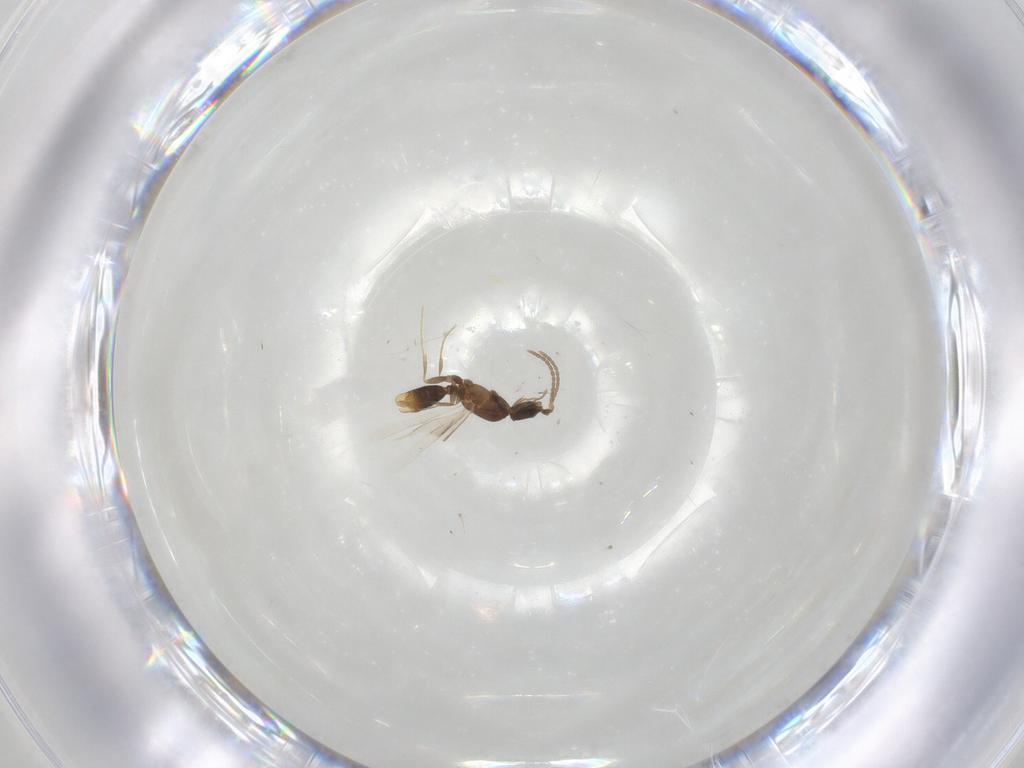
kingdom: Animalia
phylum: Arthropoda
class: Insecta
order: Hymenoptera
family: Formicidae
